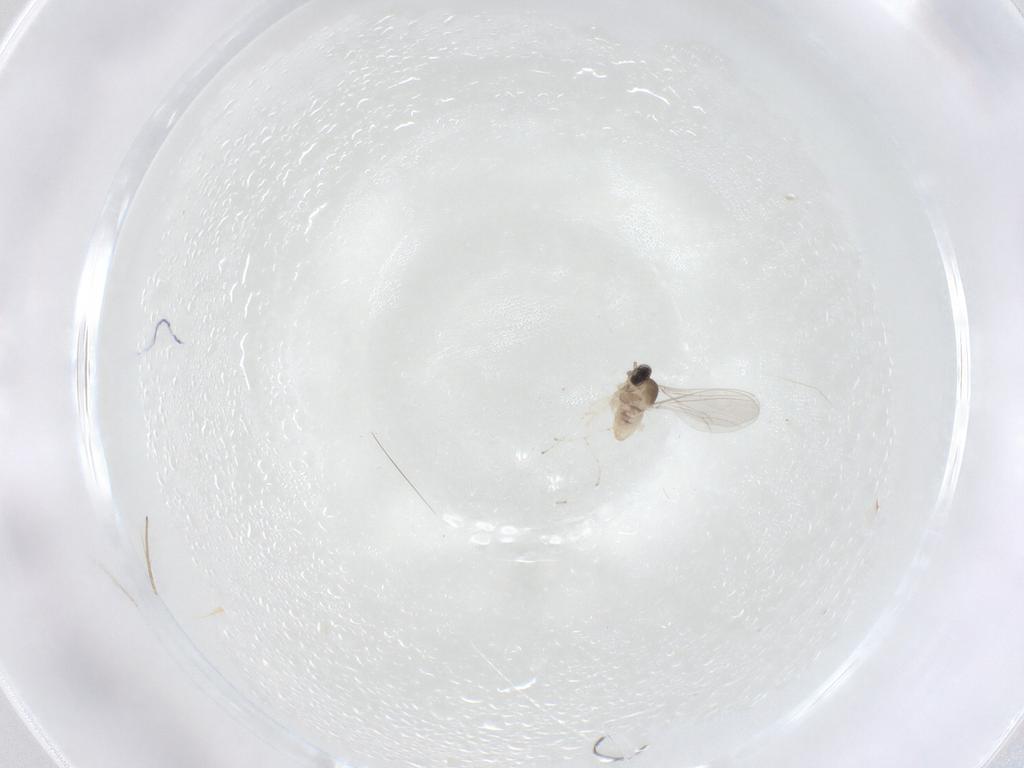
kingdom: Animalia
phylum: Arthropoda
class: Insecta
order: Diptera
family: Cecidomyiidae
